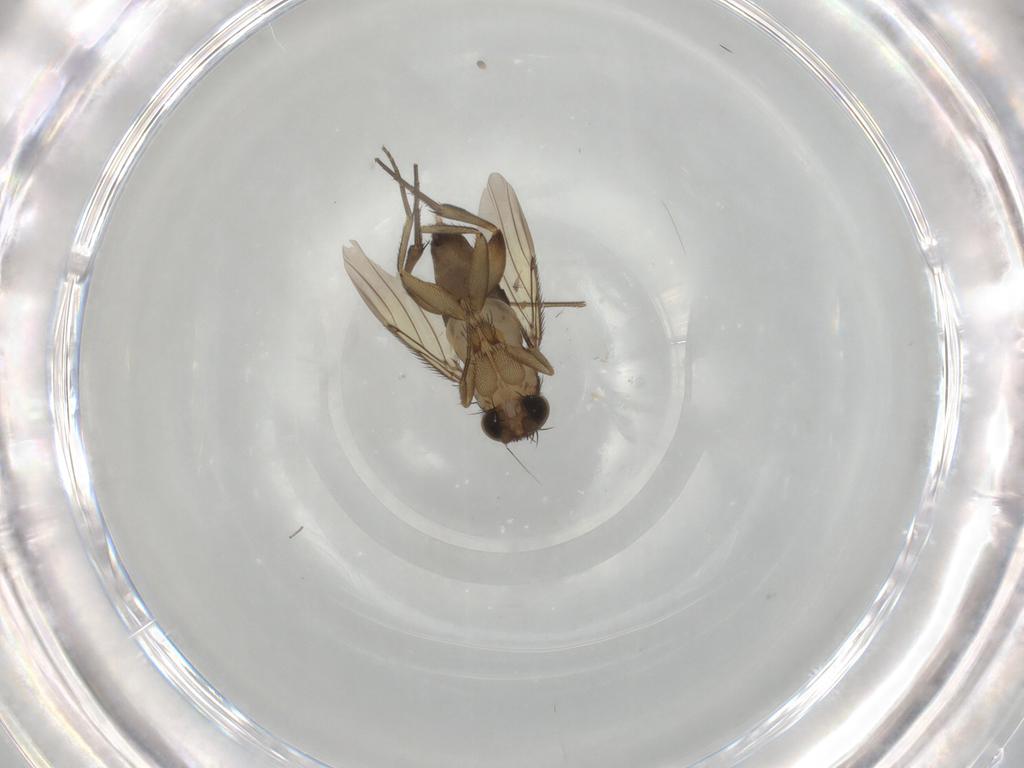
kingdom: Animalia
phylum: Arthropoda
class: Insecta
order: Diptera
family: Phoridae
